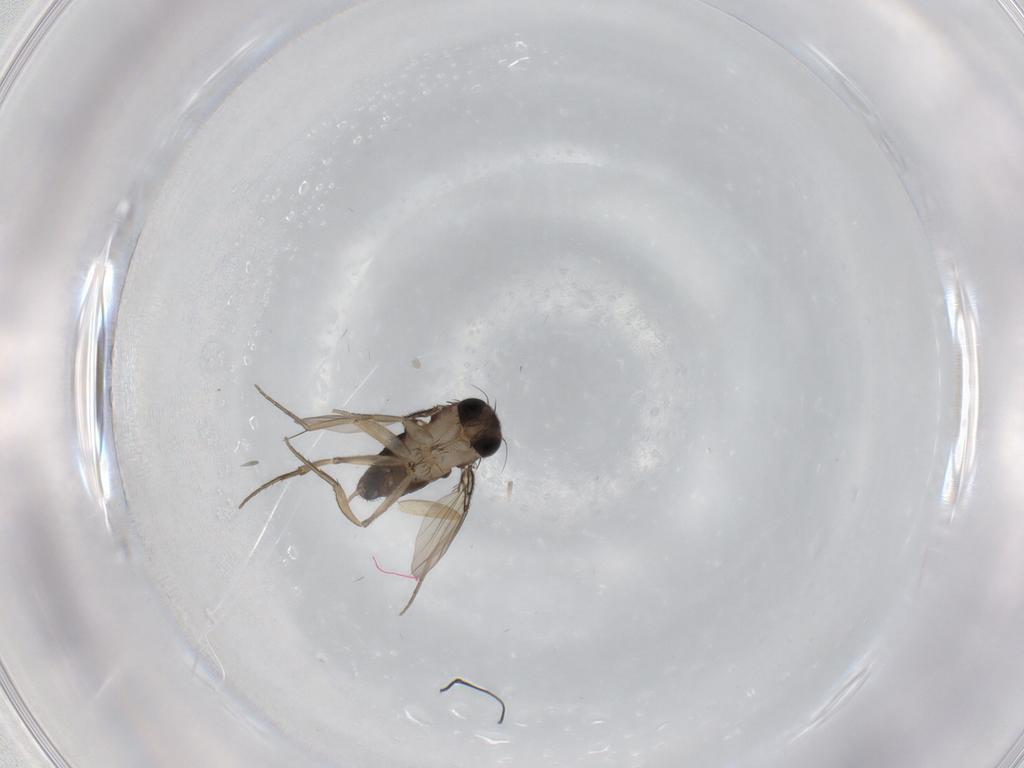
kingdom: Animalia
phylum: Arthropoda
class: Insecta
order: Diptera
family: Phoridae
